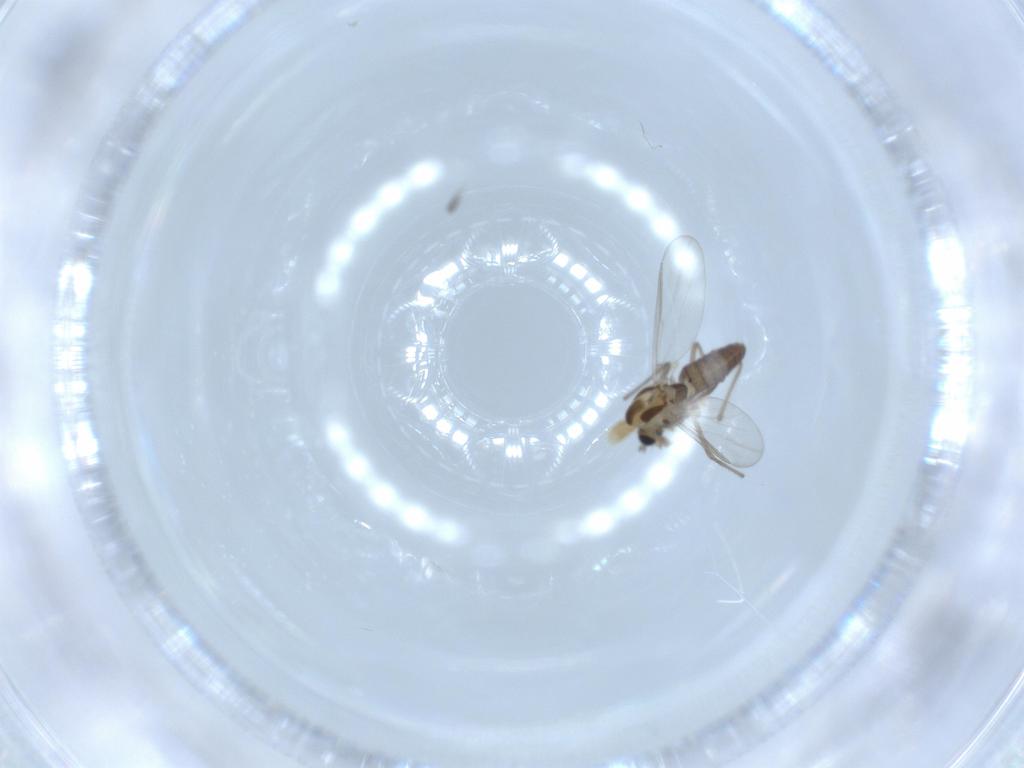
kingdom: Animalia
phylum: Arthropoda
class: Insecta
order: Diptera
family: Chironomidae
